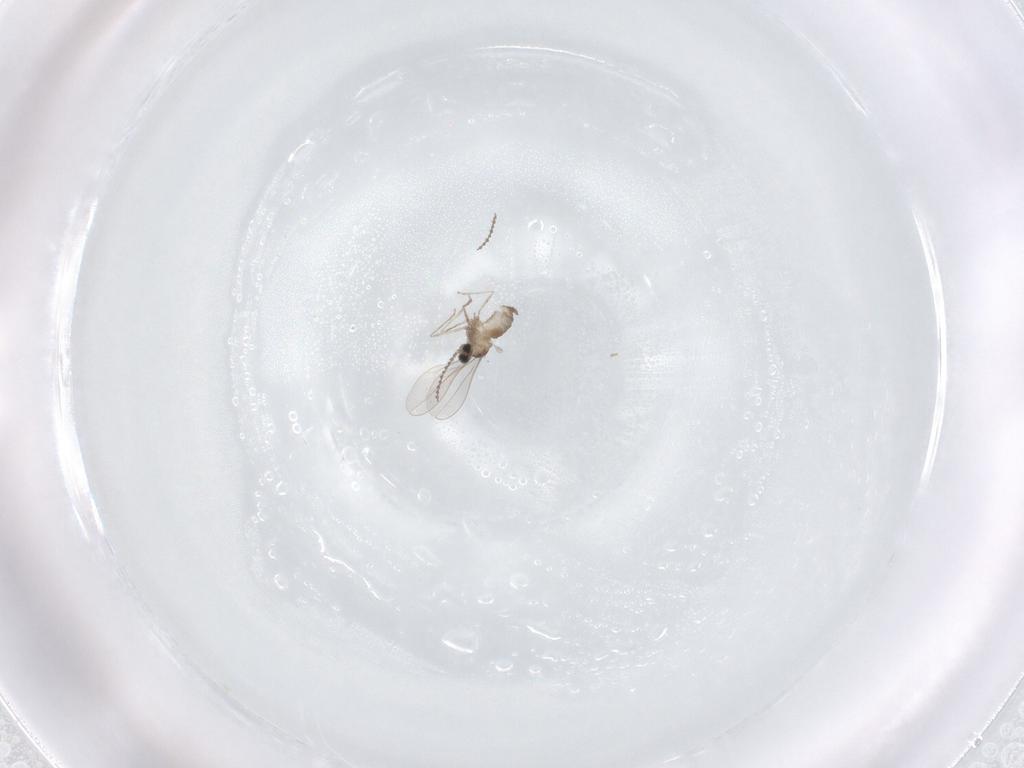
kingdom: Animalia
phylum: Arthropoda
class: Insecta
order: Diptera
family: Cecidomyiidae
